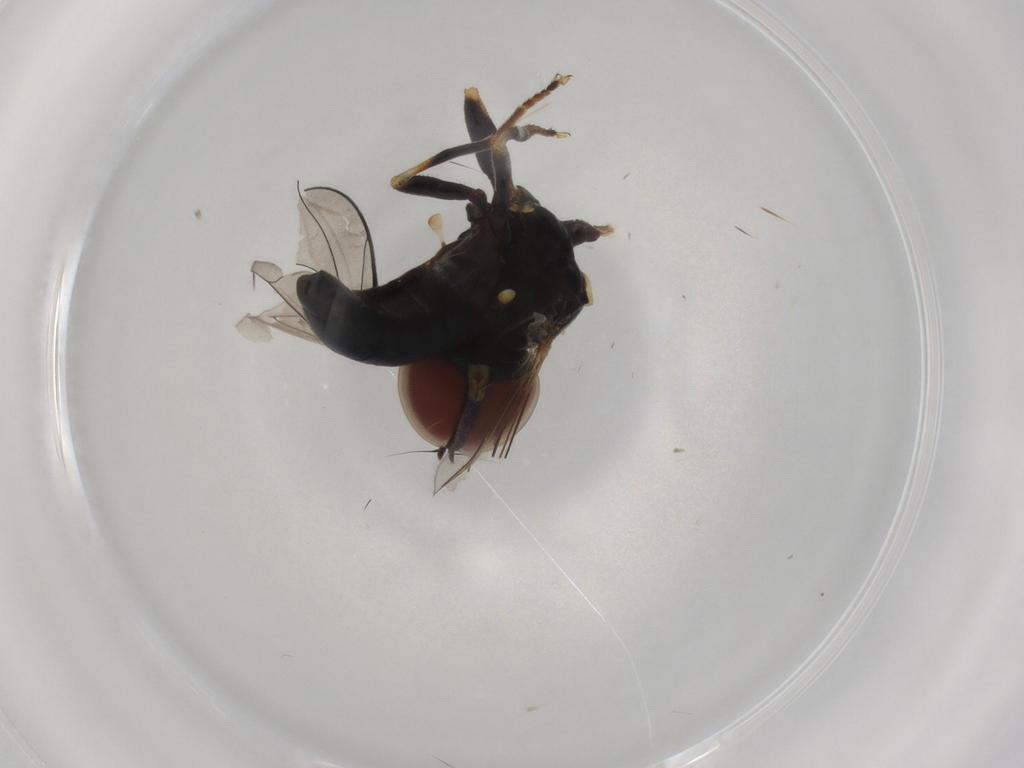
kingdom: Animalia
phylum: Arthropoda
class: Insecta
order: Diptera
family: Pipunculidae
